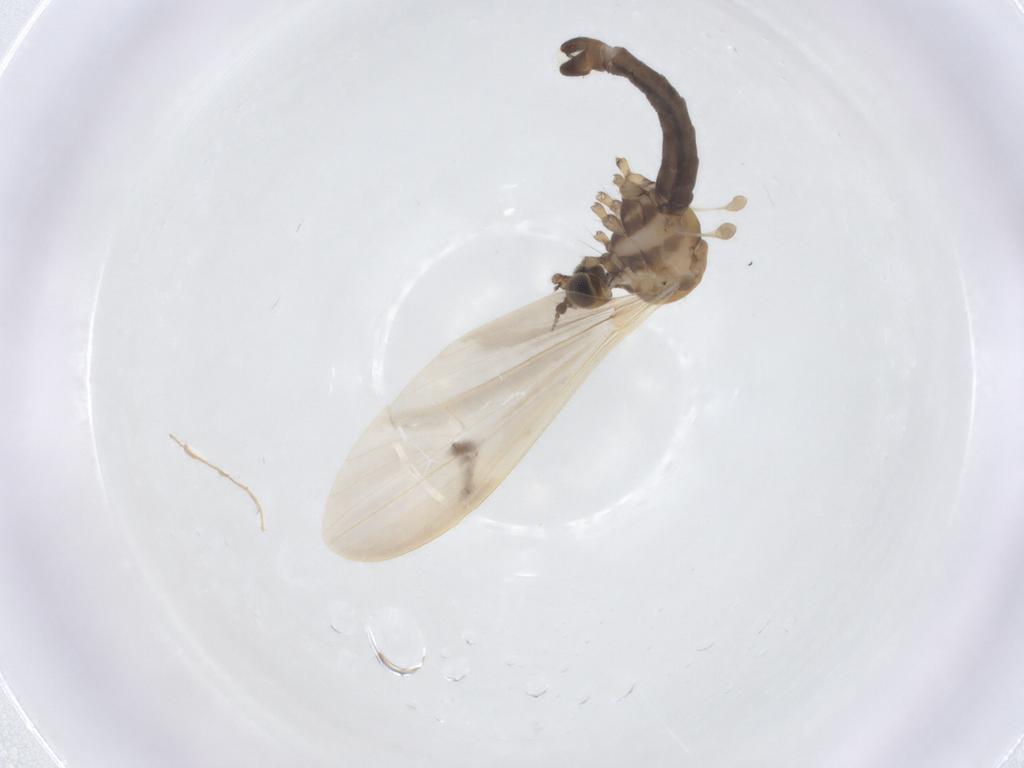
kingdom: Animalia
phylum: Arthropoda
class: Insecta
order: Diptera
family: Limoniidae
